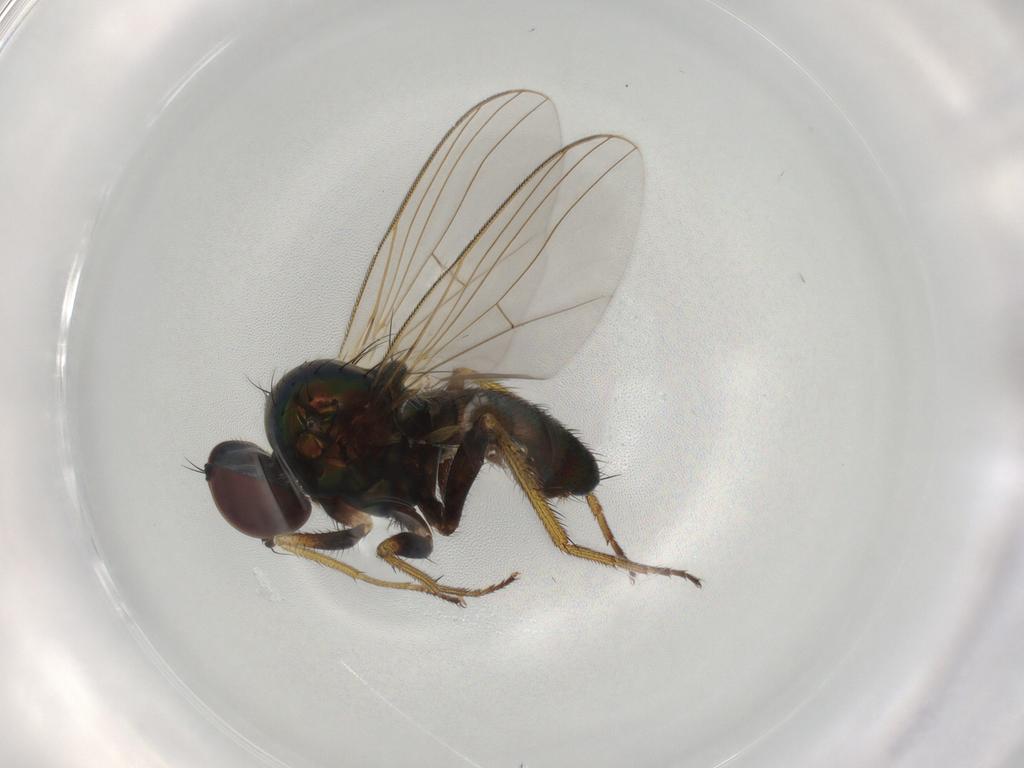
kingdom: Animalia
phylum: Arthropoda
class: Insecta
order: Diptera
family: Dolichopodidae
